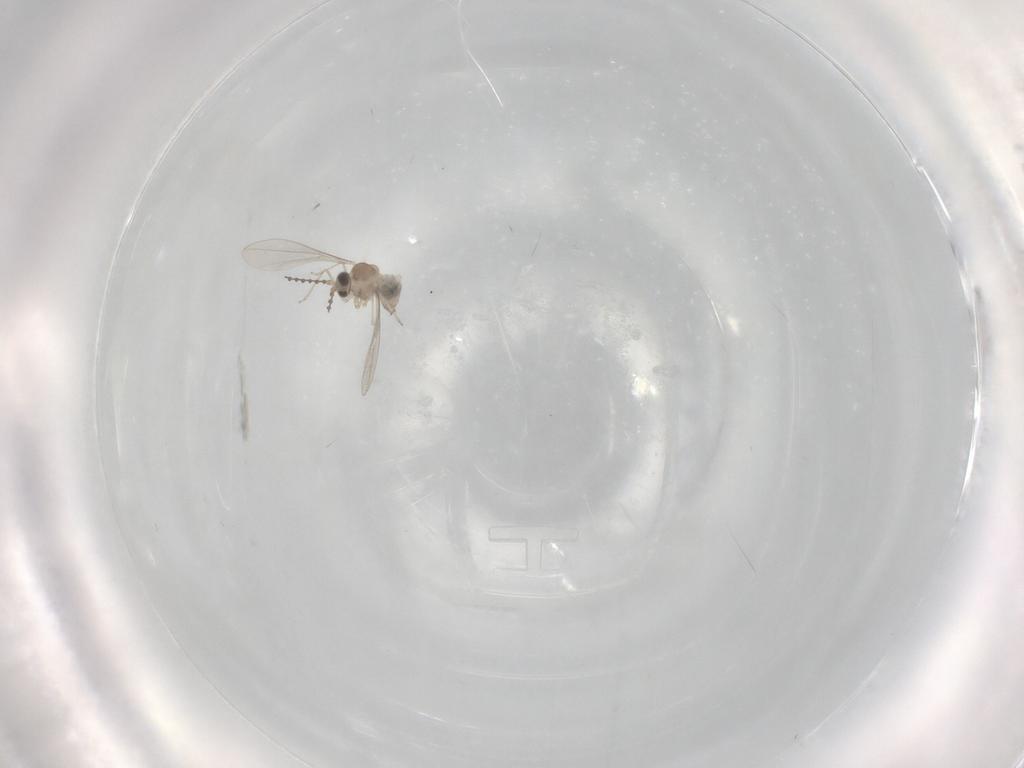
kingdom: Animalia
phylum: Arthropoda
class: Insecta
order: Diptera
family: Cecidomyiidae
